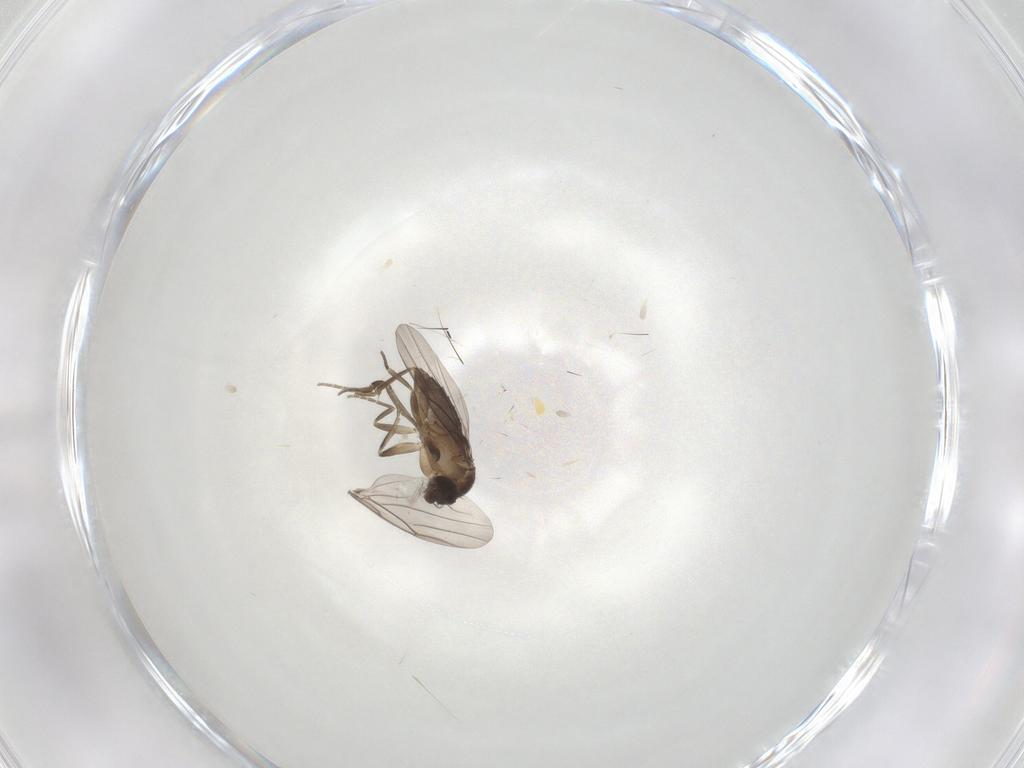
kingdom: Animalia
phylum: Arthropoda
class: Insecta
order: Diptera
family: Phoridae
